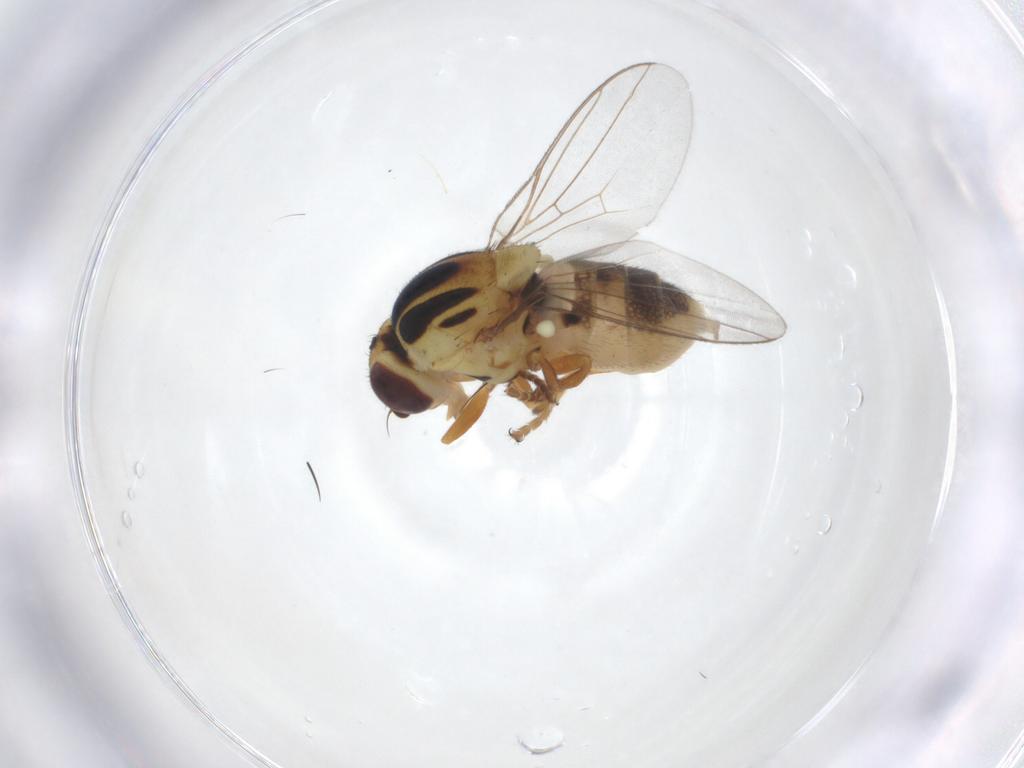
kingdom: Animalia
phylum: Arthropoda
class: Insecta
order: Diptera
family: Chloropidae
